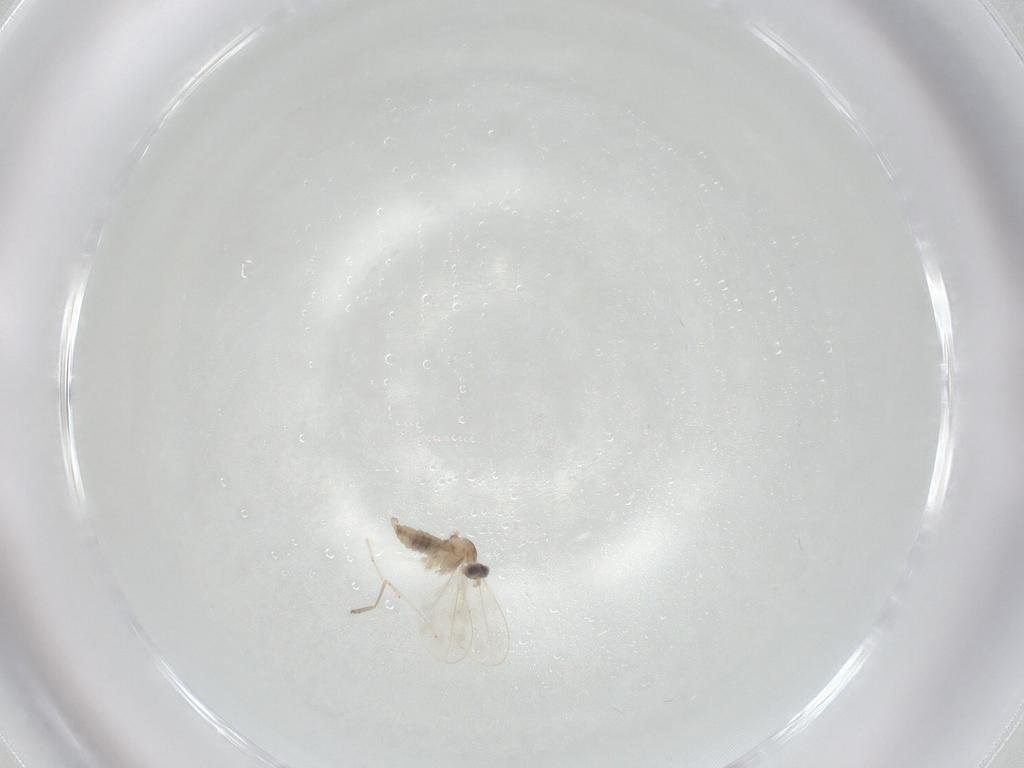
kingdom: Animalia
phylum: Arthropoda
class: Insecta
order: Diptera
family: Cecidomyiidae
